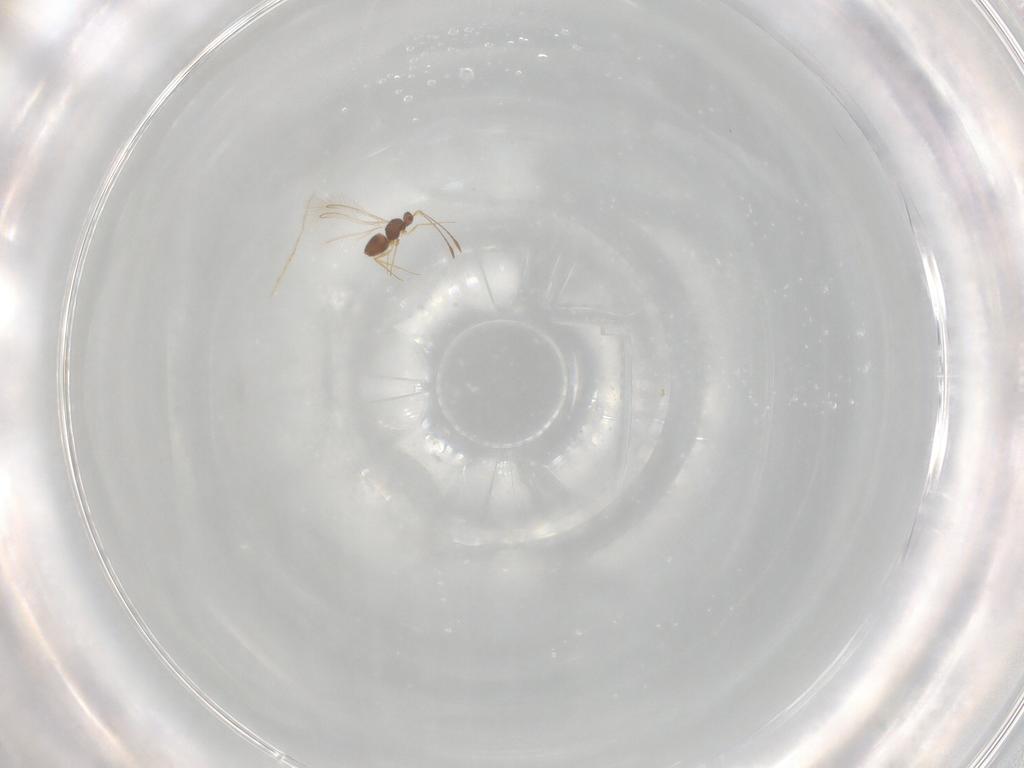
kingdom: Animalia
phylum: Arthropoda
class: Insecta
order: Hymenoptera
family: Mymaridae
